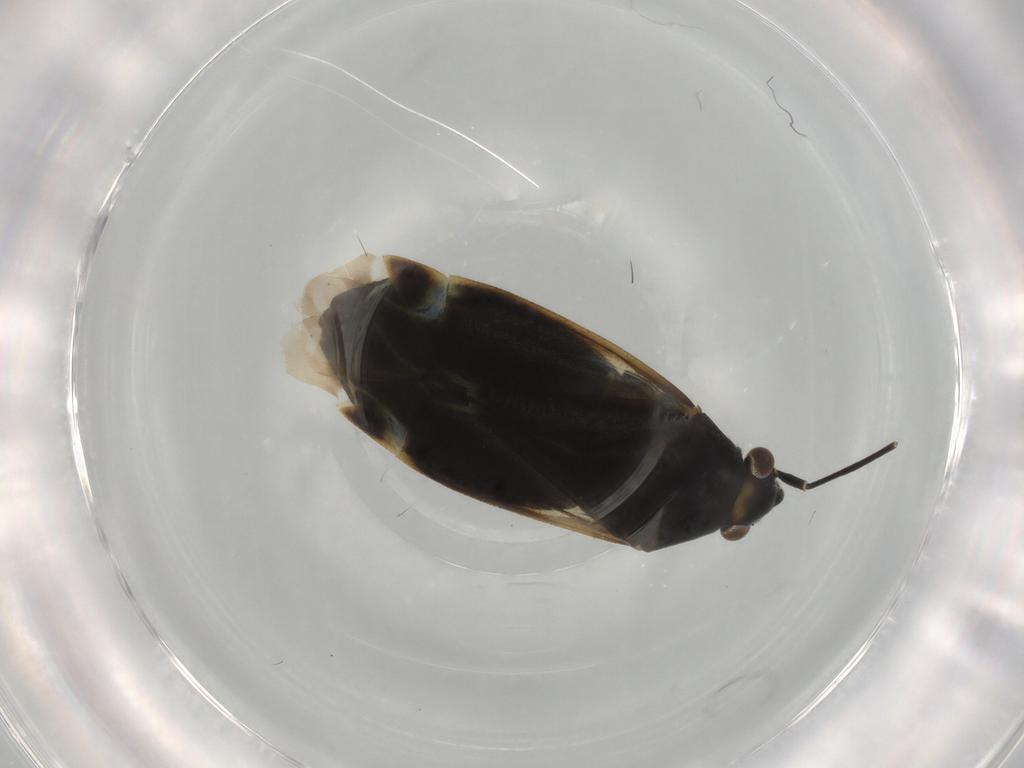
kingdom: Animalia
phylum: Arthropoda
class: Insecta
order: Hemiptera
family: Miridae
